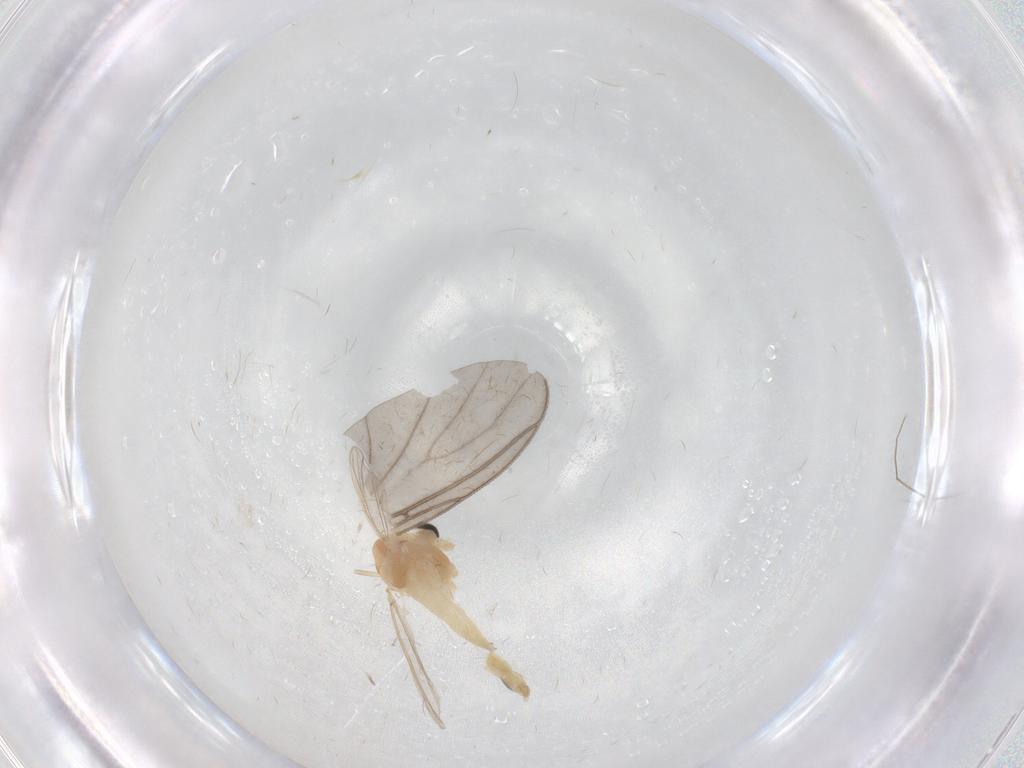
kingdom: Animalia
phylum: Arthropoda
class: Insecta
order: Diptera
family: Chironomidae
